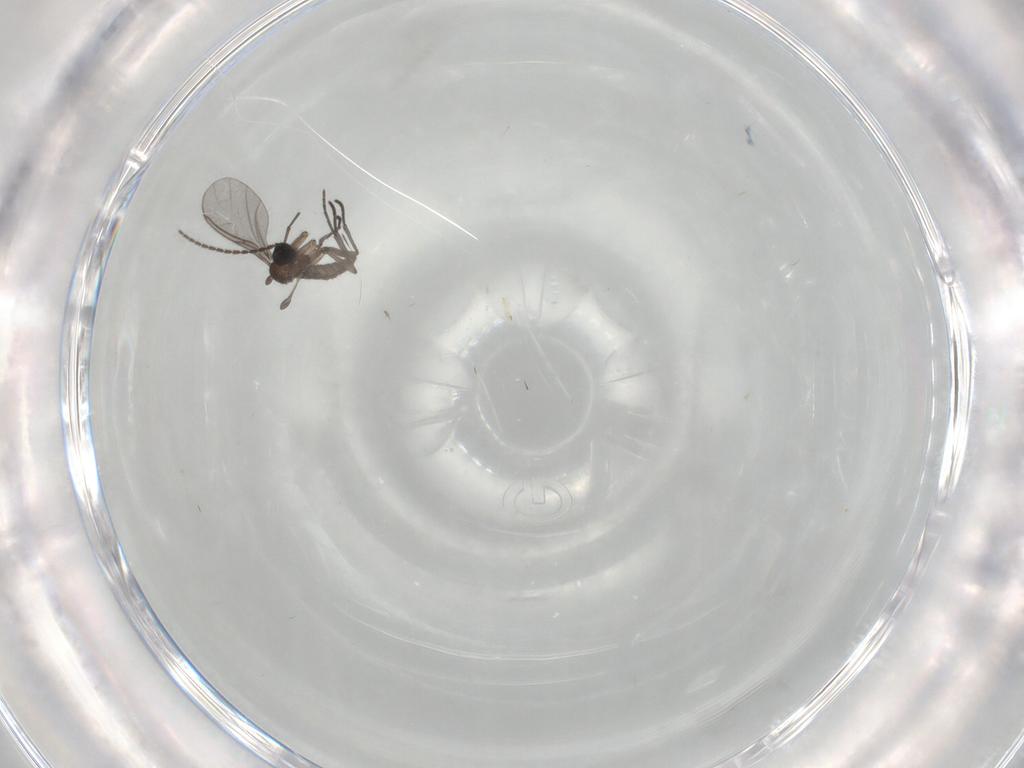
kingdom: Animalia
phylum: Arthropoda
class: Insecta
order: Diptera
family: Sciaridae
